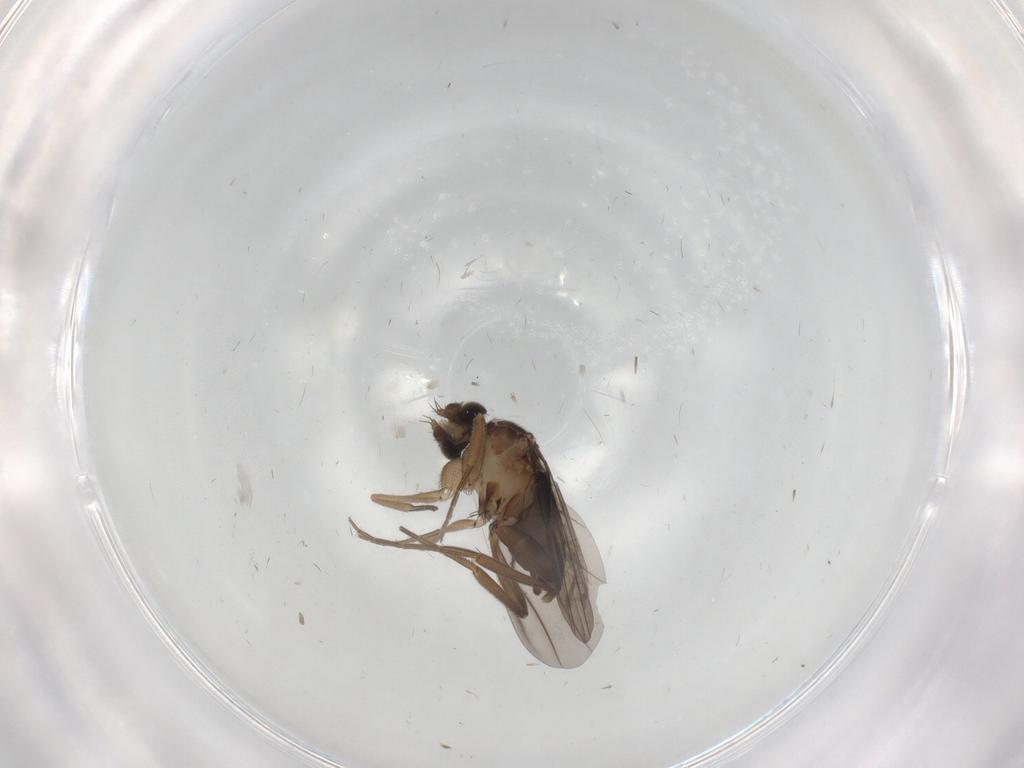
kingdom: Animalia
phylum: Arthropoda
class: Insecta
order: Diptera
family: Phoridae
